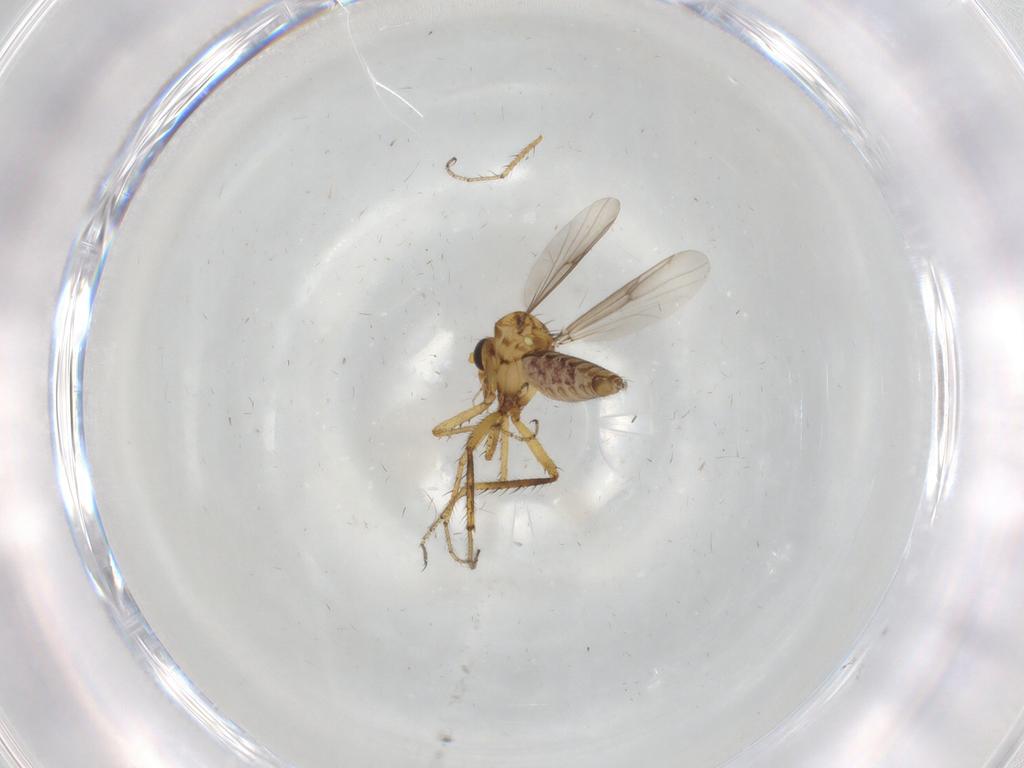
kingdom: Animalia
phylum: Arthropoda
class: Insecta
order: Diptera
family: Ceratopogonidae
